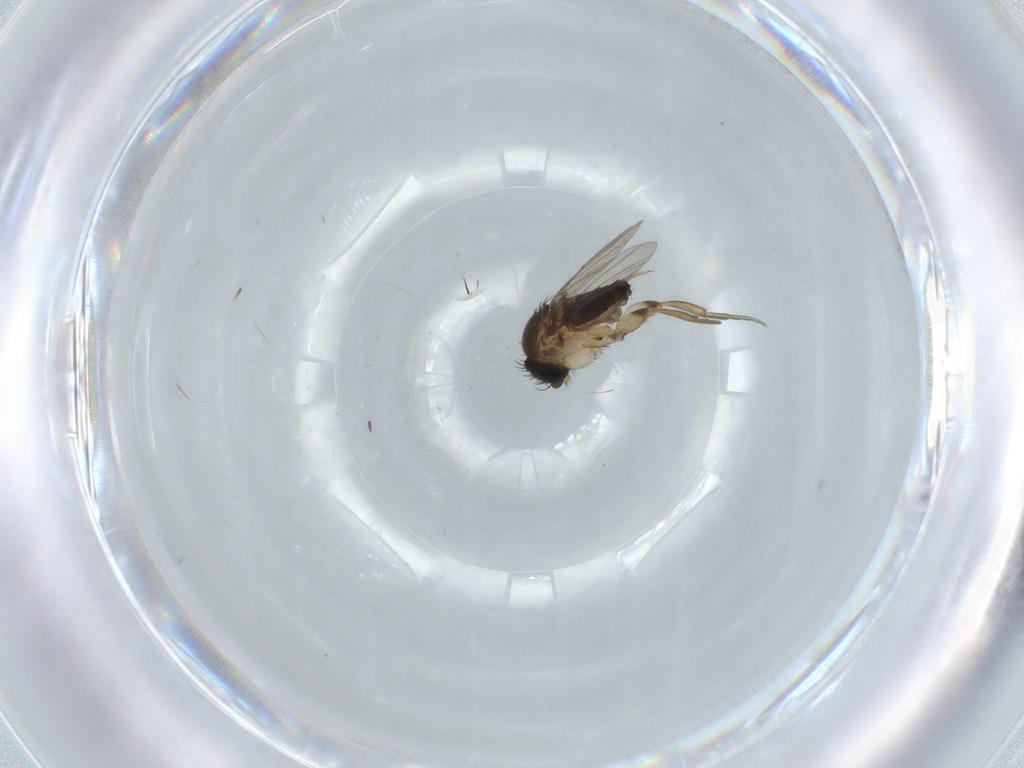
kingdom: Animalia
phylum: Arthropoda
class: Insecta
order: Diptera
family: Phoridae
